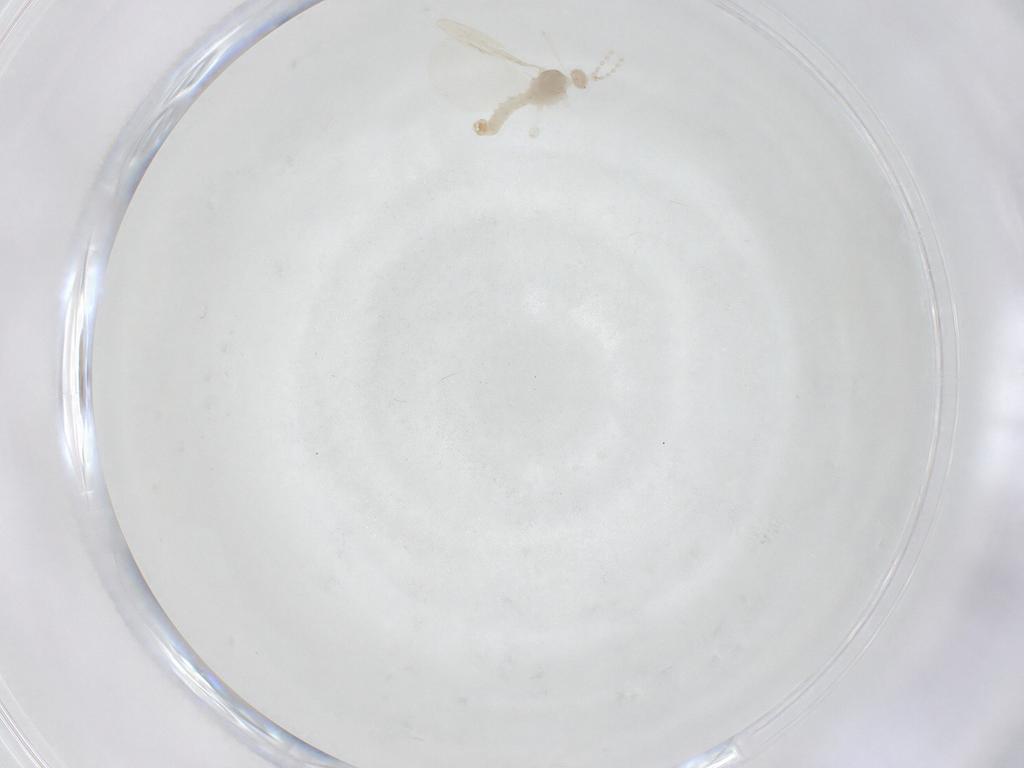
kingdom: Animalia
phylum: Arthropoda
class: Insecta
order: Diptera
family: Cecidomyiidae
